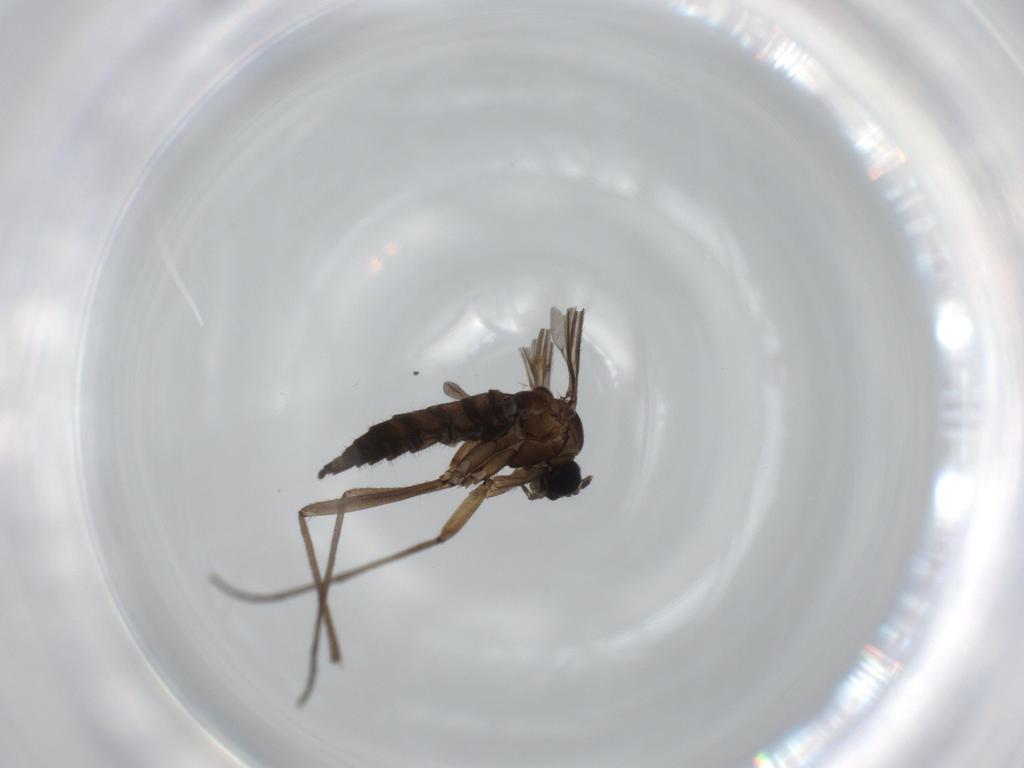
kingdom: Animalia
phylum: Arthropoda
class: Insecta
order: Diptera
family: Sciaridae
